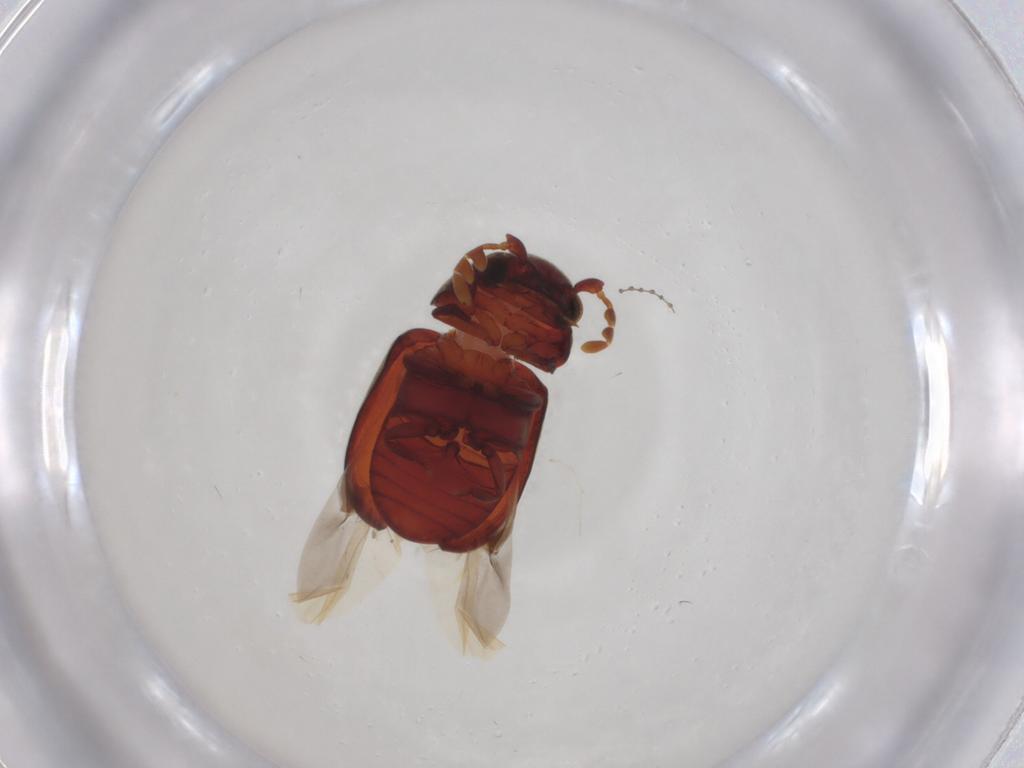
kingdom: Animalia
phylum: Arthropoda
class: Insecta
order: Coleoptera
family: Ptinidae
